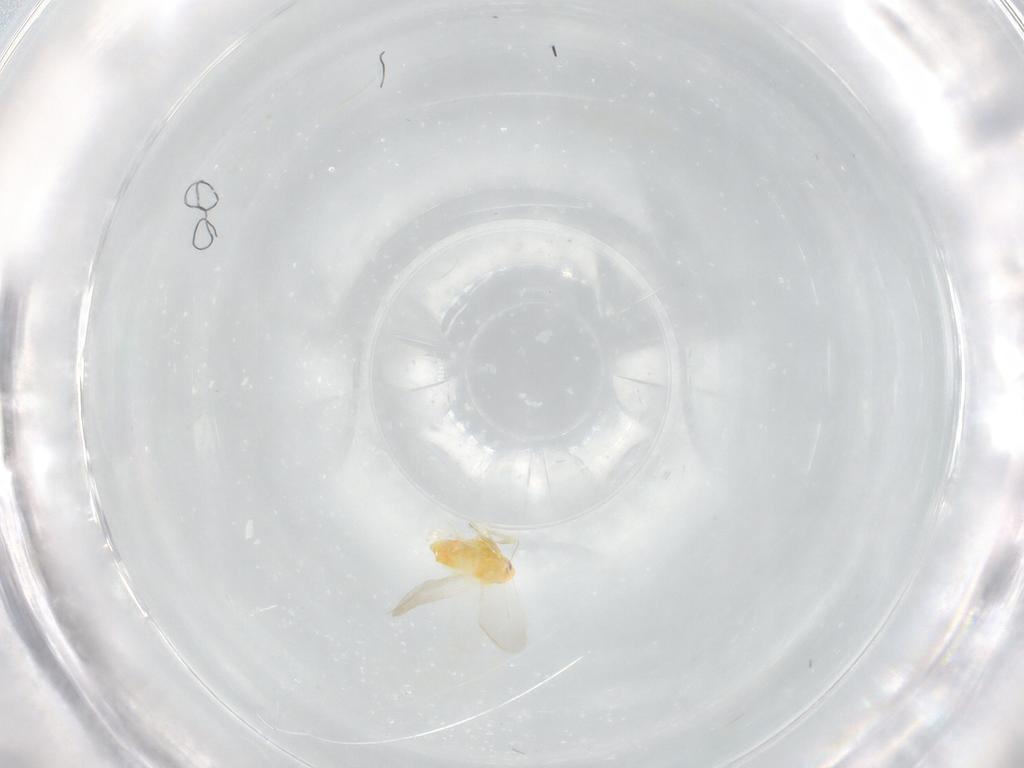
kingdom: Animalia
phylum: Arthropoda
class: Insecta
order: Hemiptera
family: Aleyrodidae
